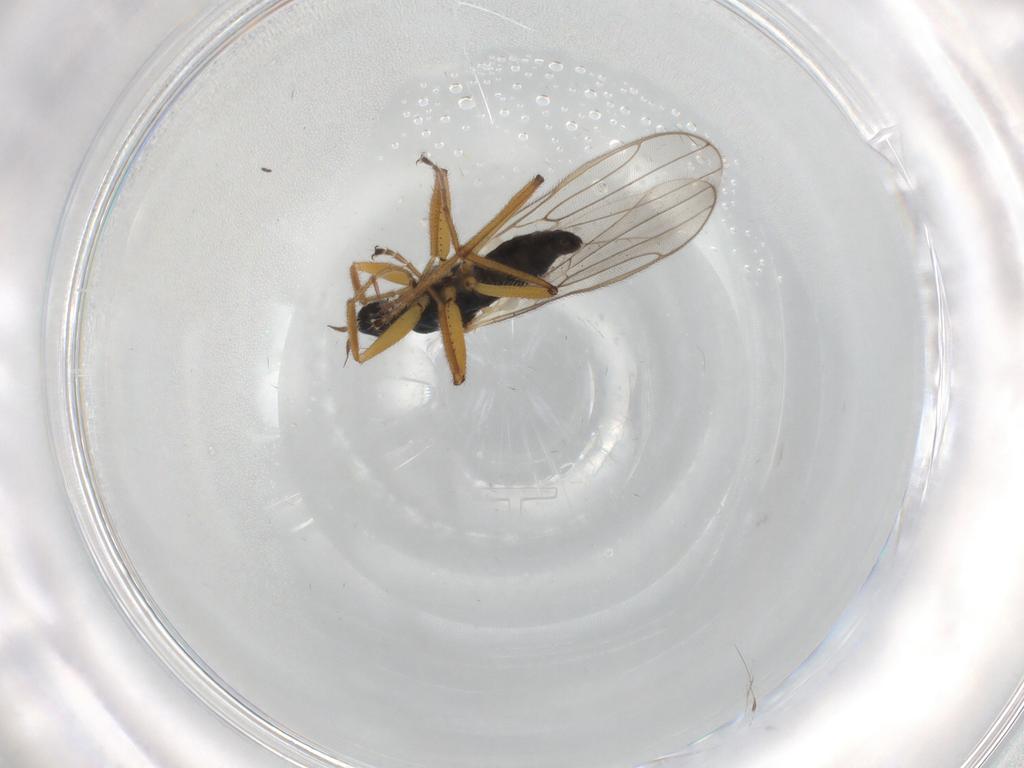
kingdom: Animalia
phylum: Arthropoda
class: Insecta
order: Diptera
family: Hybotidae
